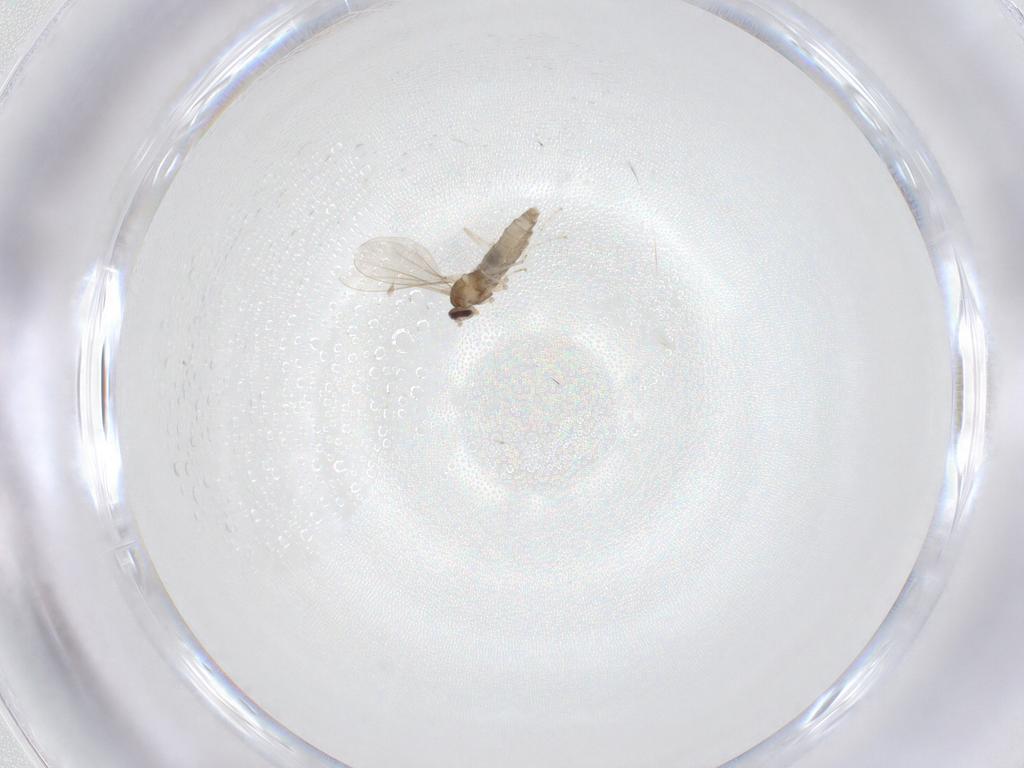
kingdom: Animalia
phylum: Arthropoda
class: Insecta
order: Diptera
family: Cecidomyiidae
